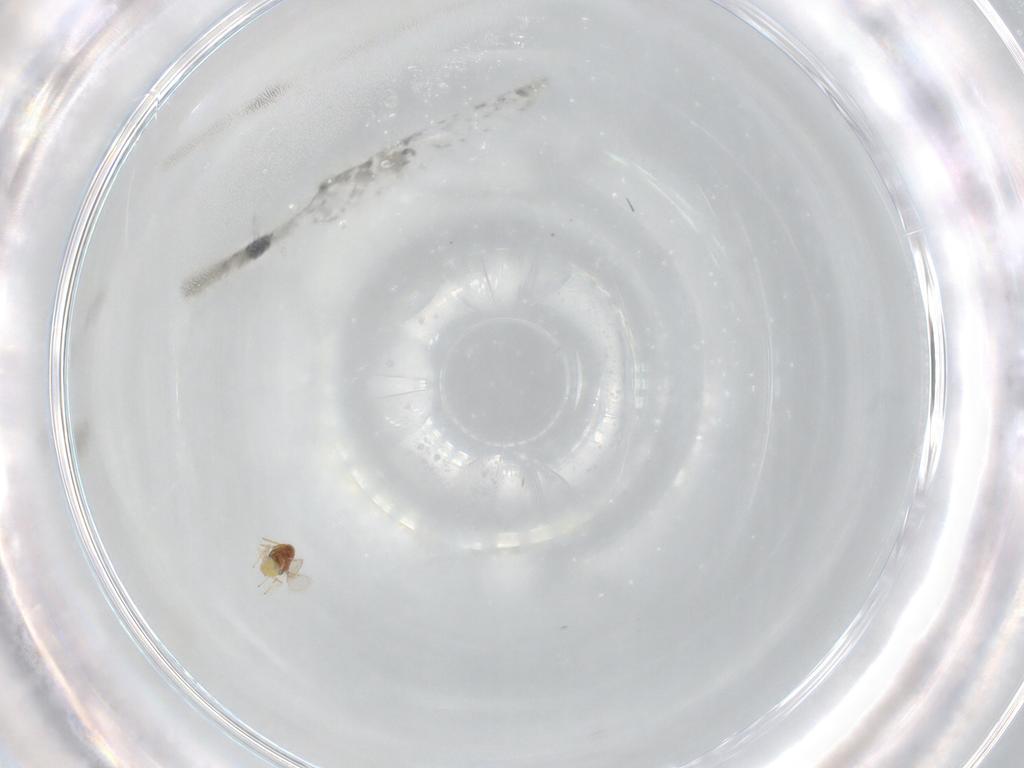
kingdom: Animalia
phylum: Arthropoda
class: Insecta
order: Hymenoptera
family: Aphelinidae
